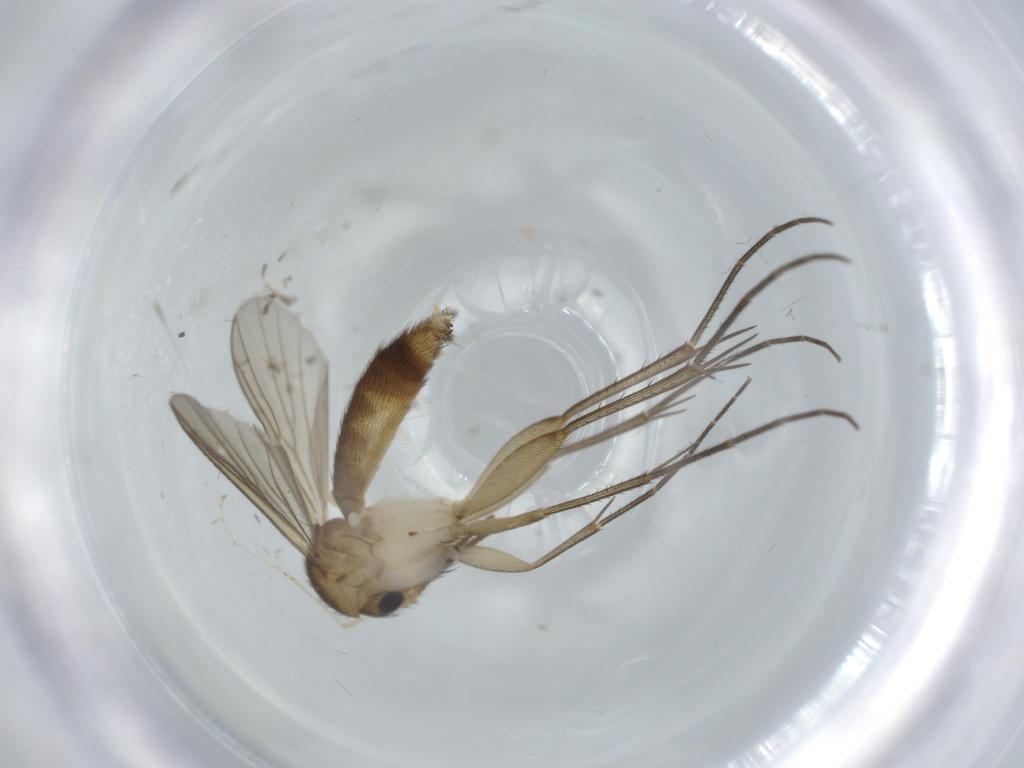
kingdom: Animalia
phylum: Arthropoda
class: Insecta
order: Diptera
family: Mycetophilidae
